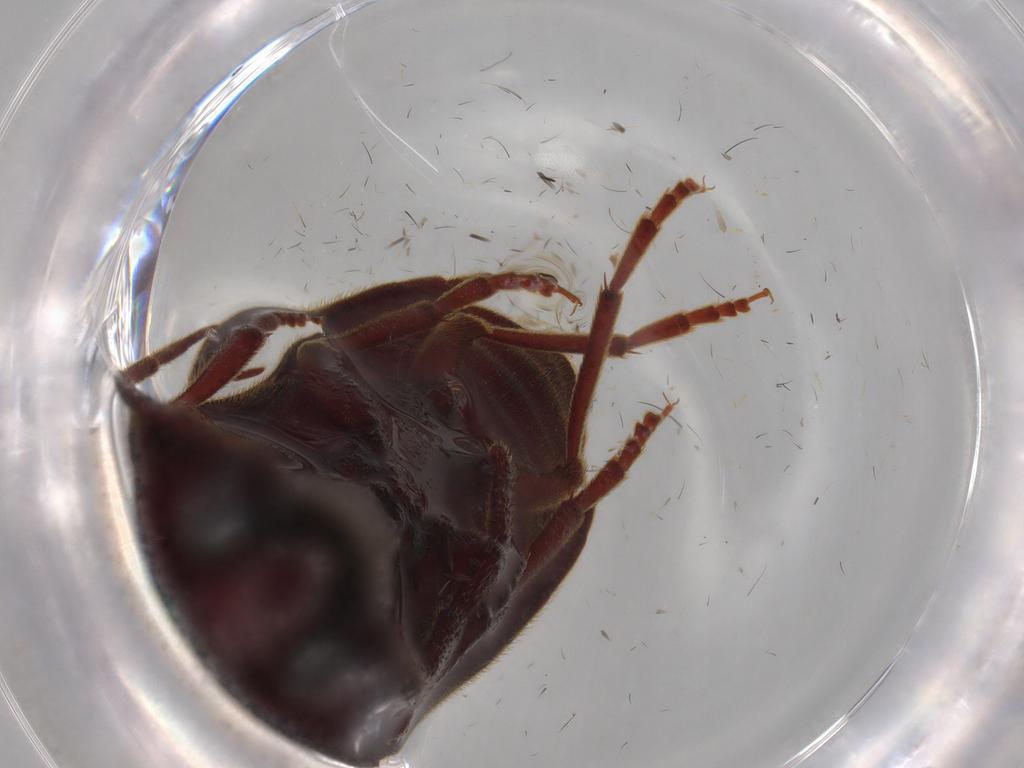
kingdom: Animalia
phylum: Arthropoda
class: Insecta
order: Coleoptera
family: Ptilodactylidae
